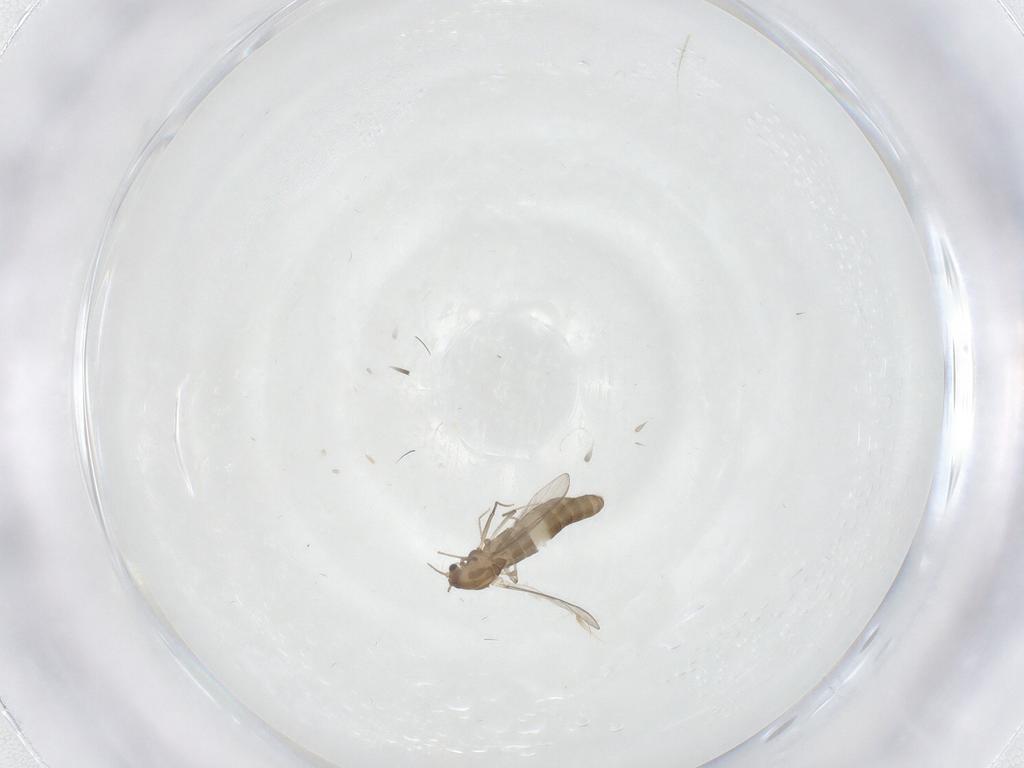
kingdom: Animalia
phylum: Arthropoda
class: Insecta
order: Diptera
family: Chironomidae
